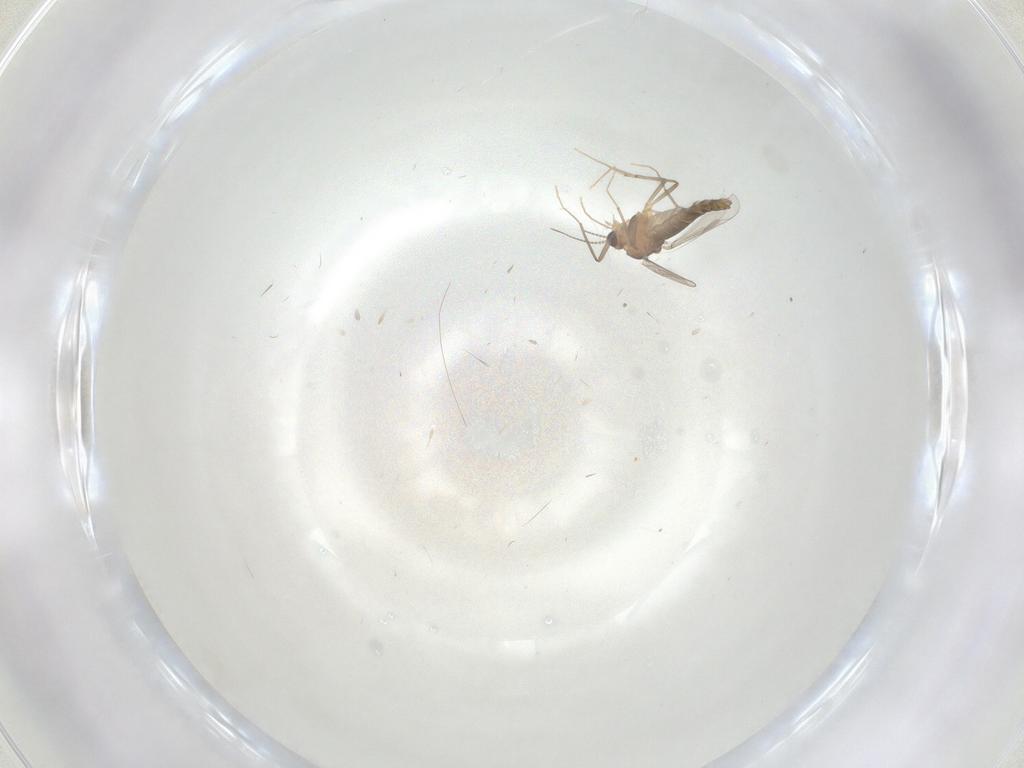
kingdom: Animalia
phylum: Arthropoda
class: Insecta
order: Diptera
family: Chironomidae
